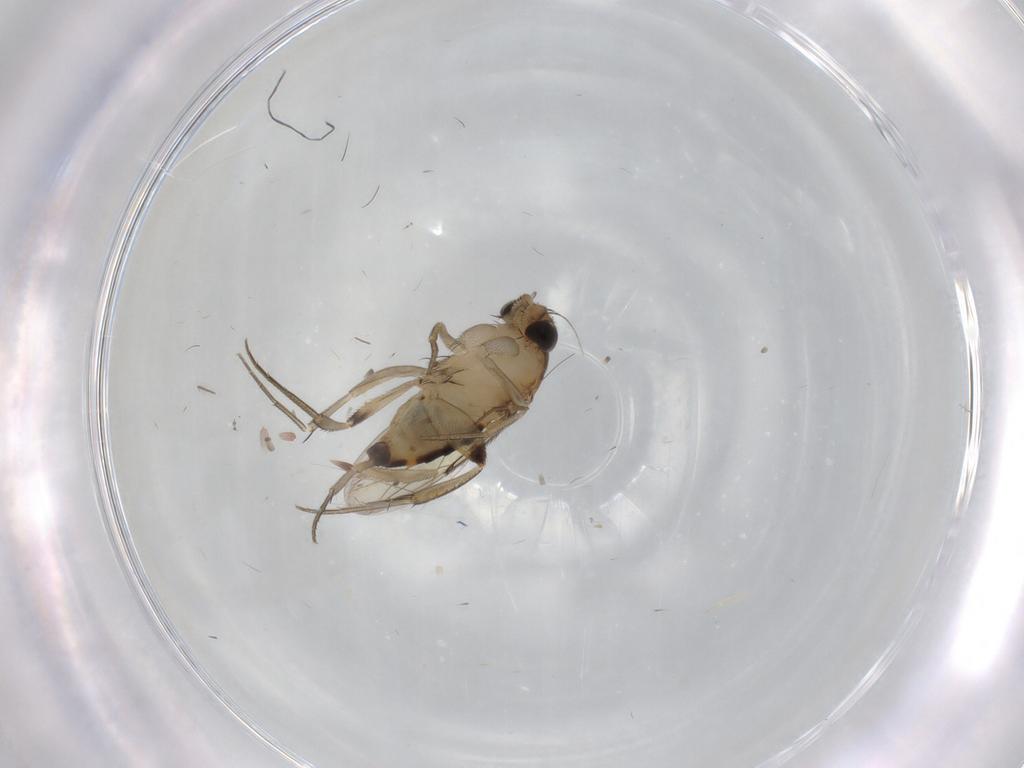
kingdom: Animalia
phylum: Arthropoda
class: Insecta
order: Diptera
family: Phoridae
